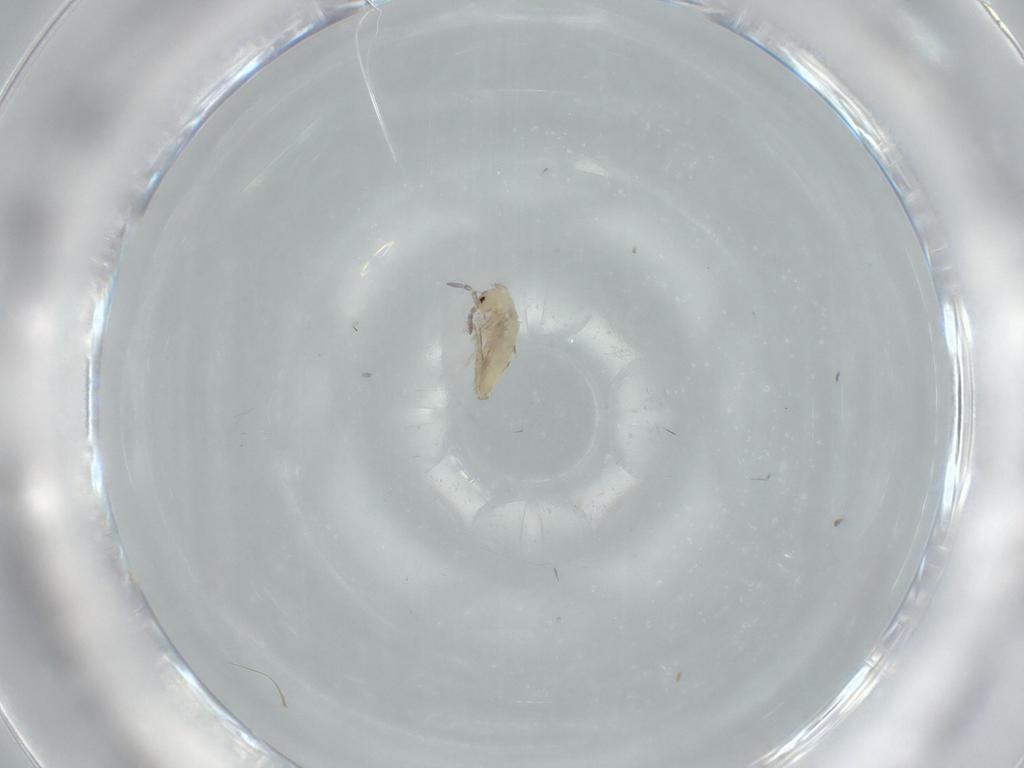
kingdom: Animalia
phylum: Arthropoda
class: Collembola
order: Entomobryomorpha
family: Entomobryidae
